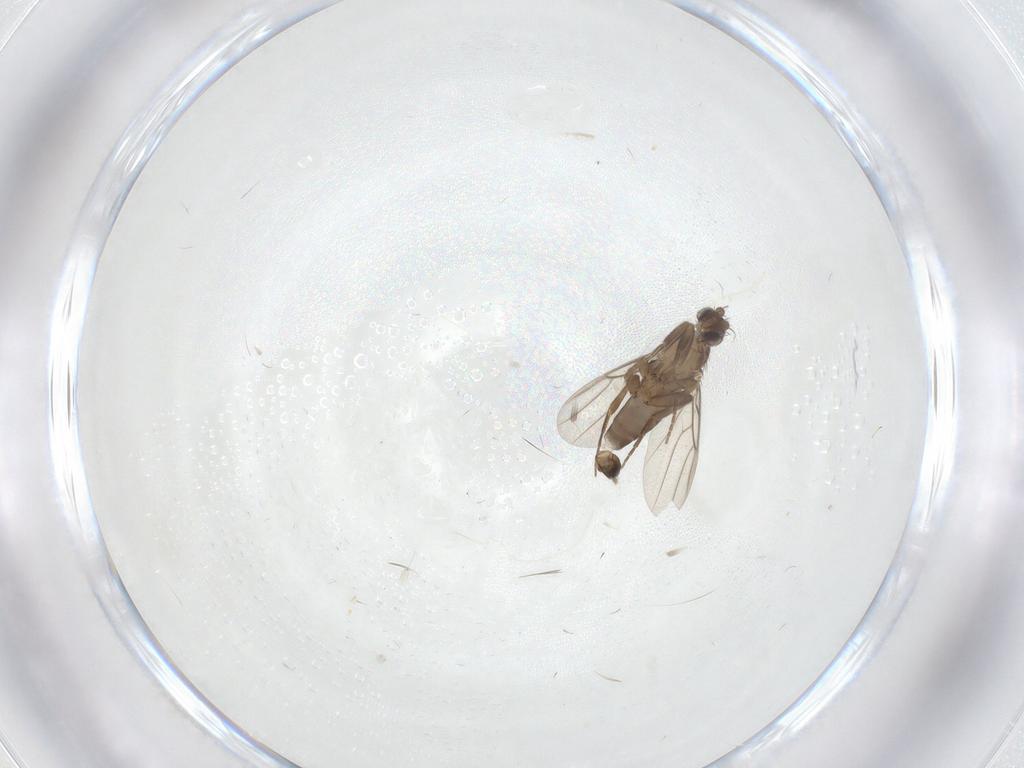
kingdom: Animalia
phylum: Arthropoda
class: Insecta
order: Diptera
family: Phoridae
